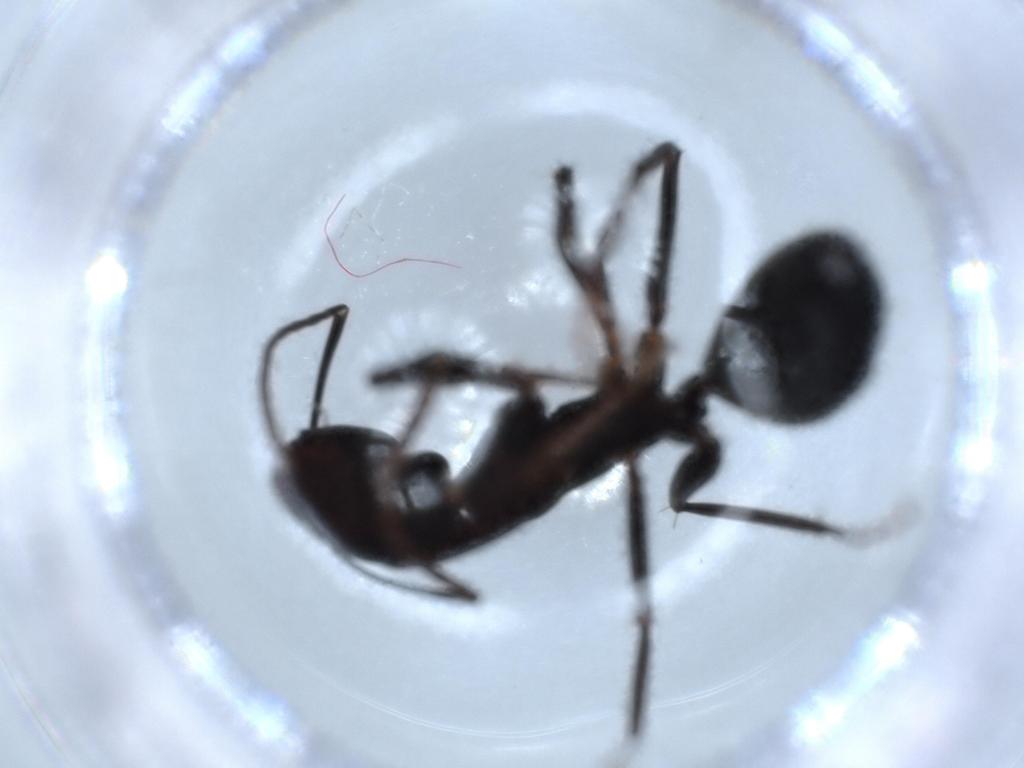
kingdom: Animalia
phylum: Arthropoda
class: Insecta
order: Hymenoptera
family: Formicidae
